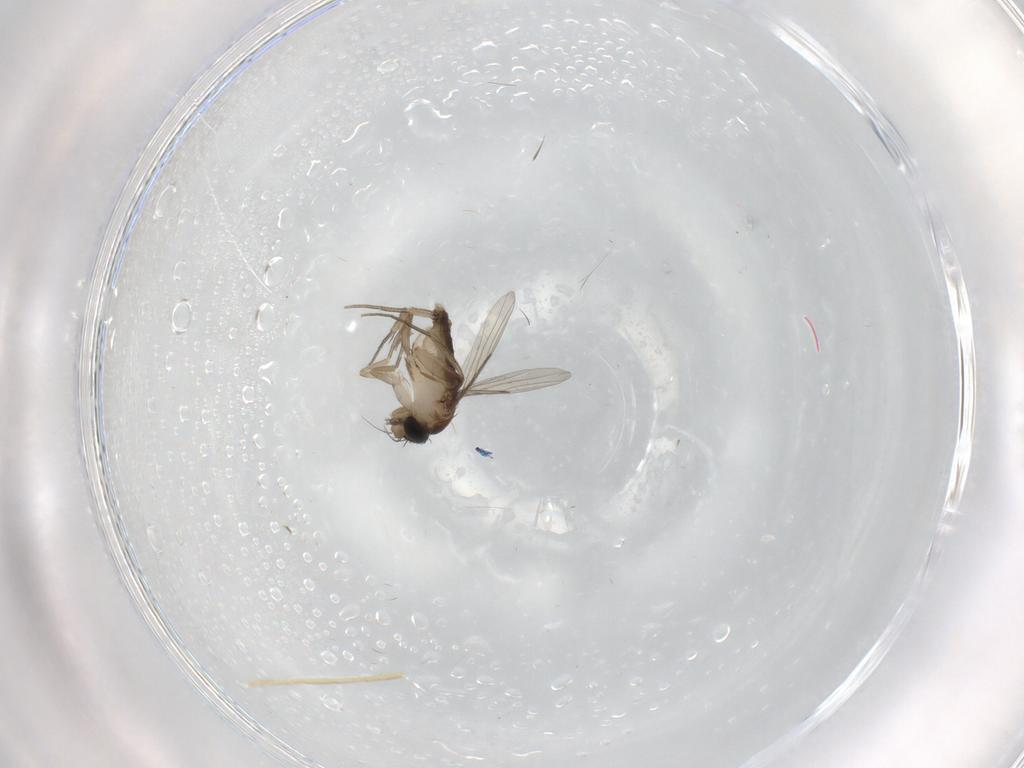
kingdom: Animalia
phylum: Arthropoda
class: Insecta
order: Diptera
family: Phoridae
